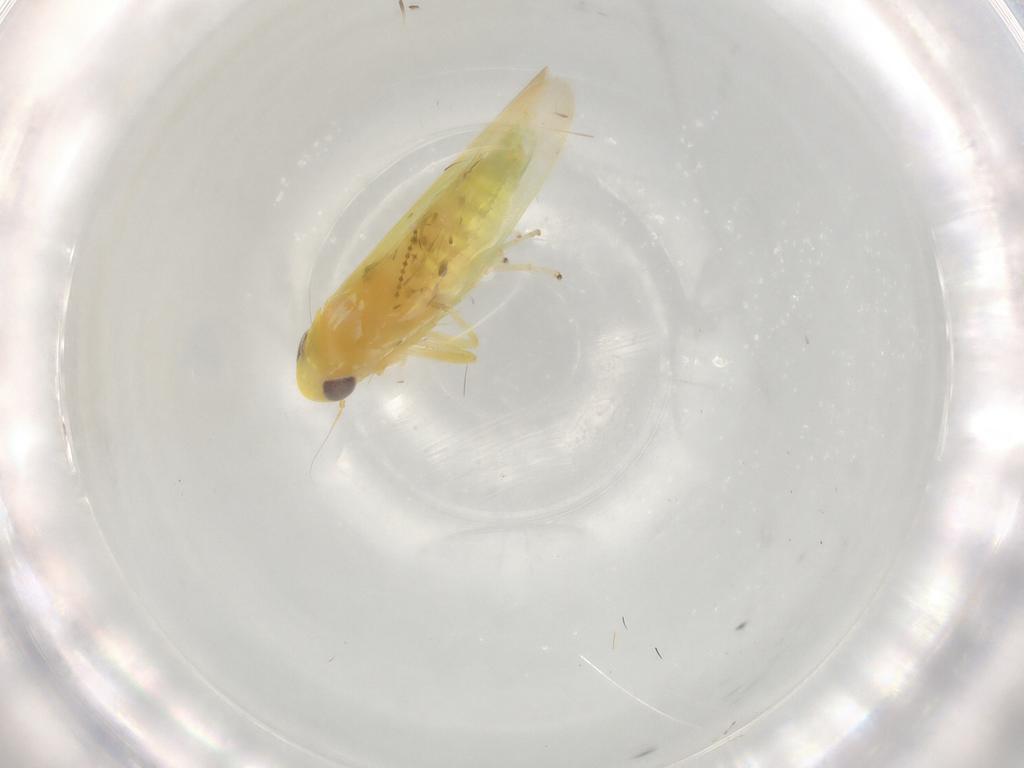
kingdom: Animalia
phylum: Arthropoda
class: Insecta
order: Hemiptera
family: Cicadellidae
